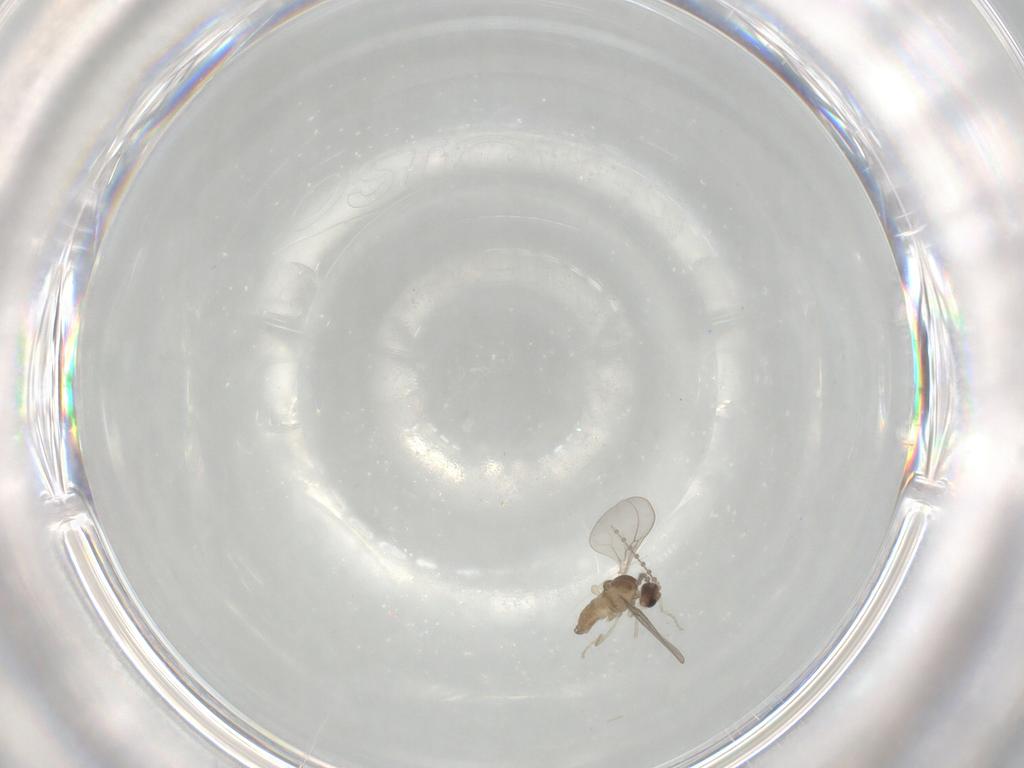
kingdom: Animalia
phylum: Arthropoda
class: Insecta
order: Diptera
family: Cecidomyiidae
